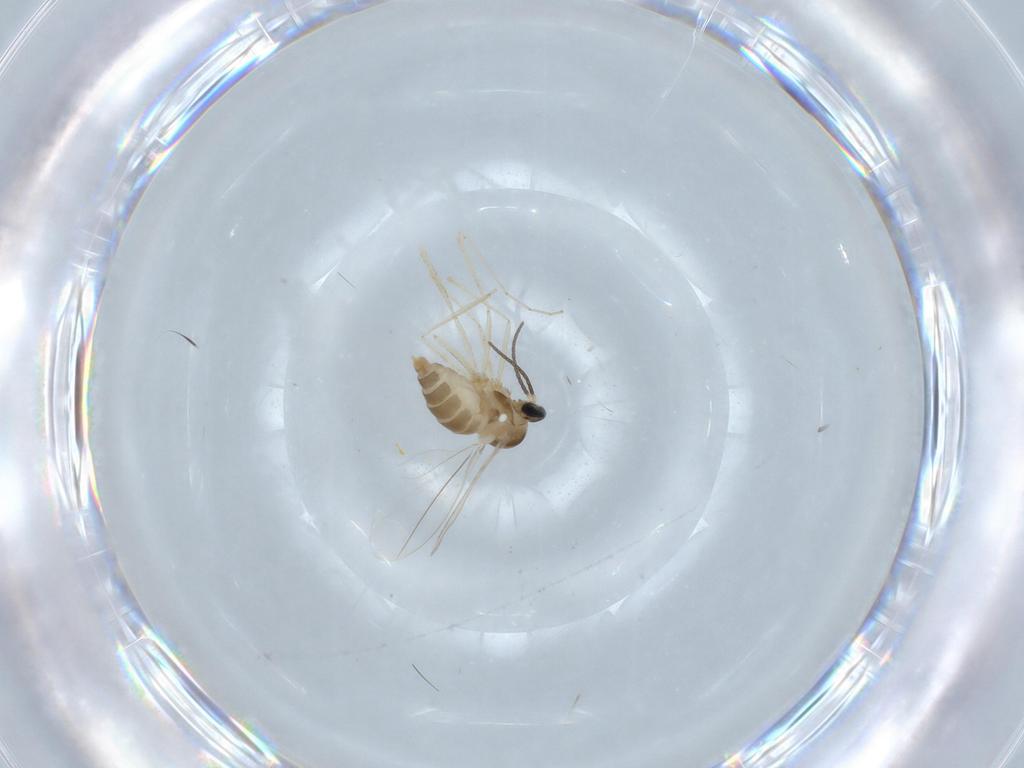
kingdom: Animalia
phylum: Arthropoda
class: Insecta
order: Diptera
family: Cecidomyiidae
